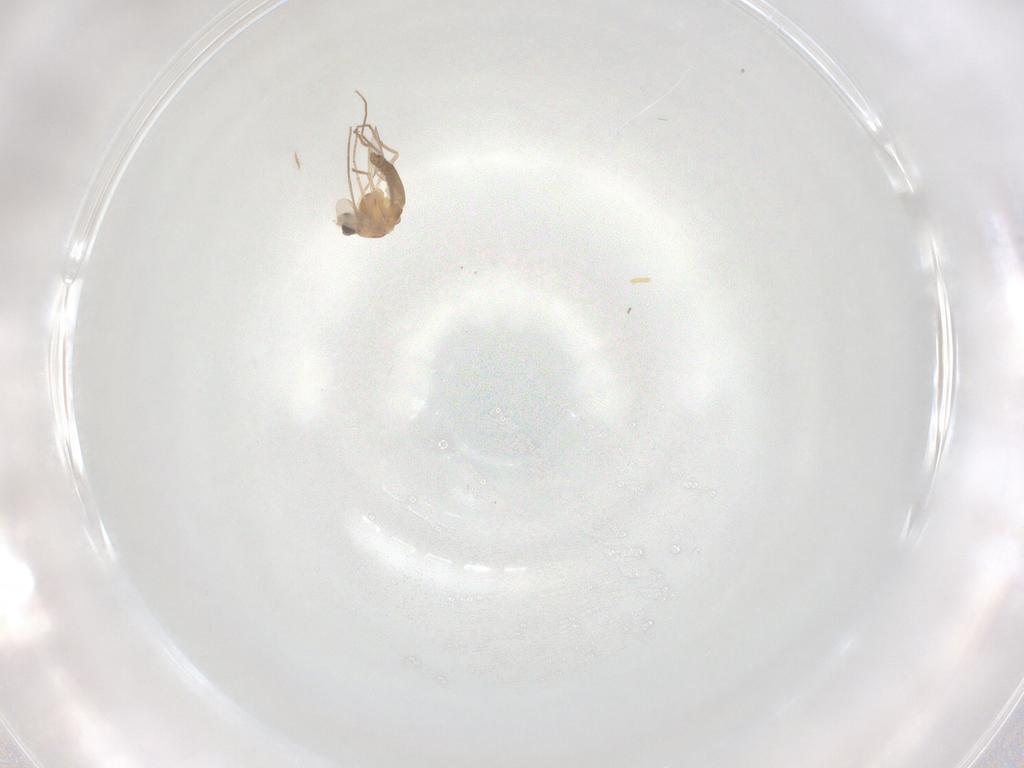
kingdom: Animalia
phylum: Arthropoda
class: Insecta
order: Diptera
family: Chironomidae
